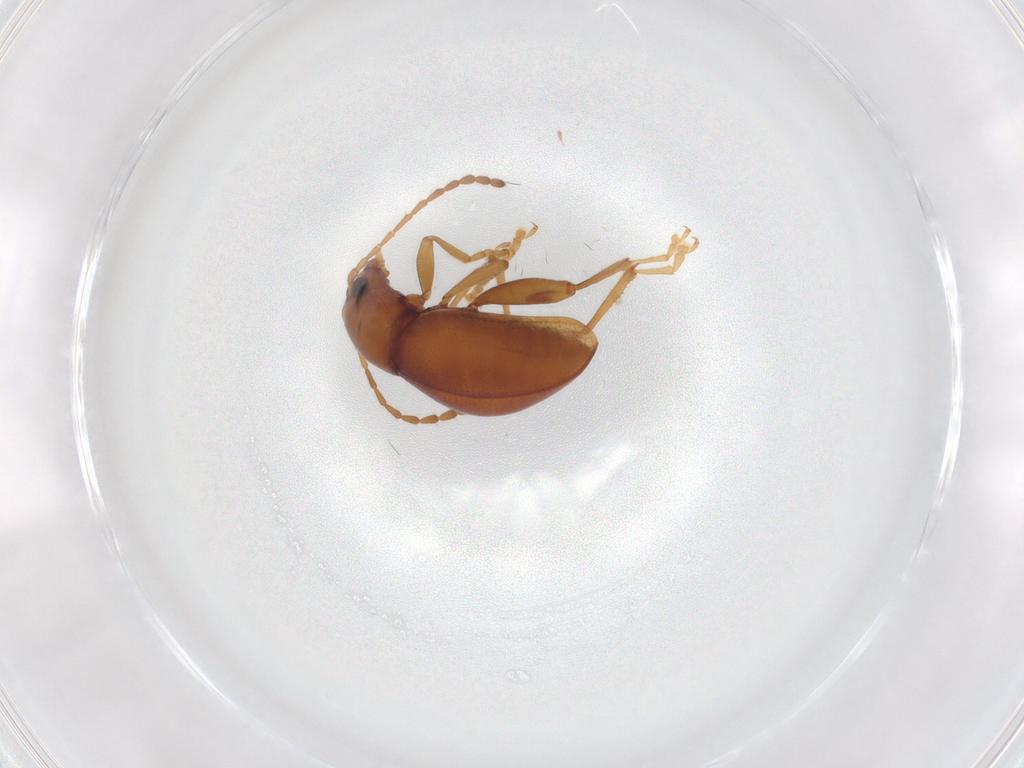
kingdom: Animalia
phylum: Arthropoda
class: Insecta
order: Coleoptera
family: Chrysomelidae
